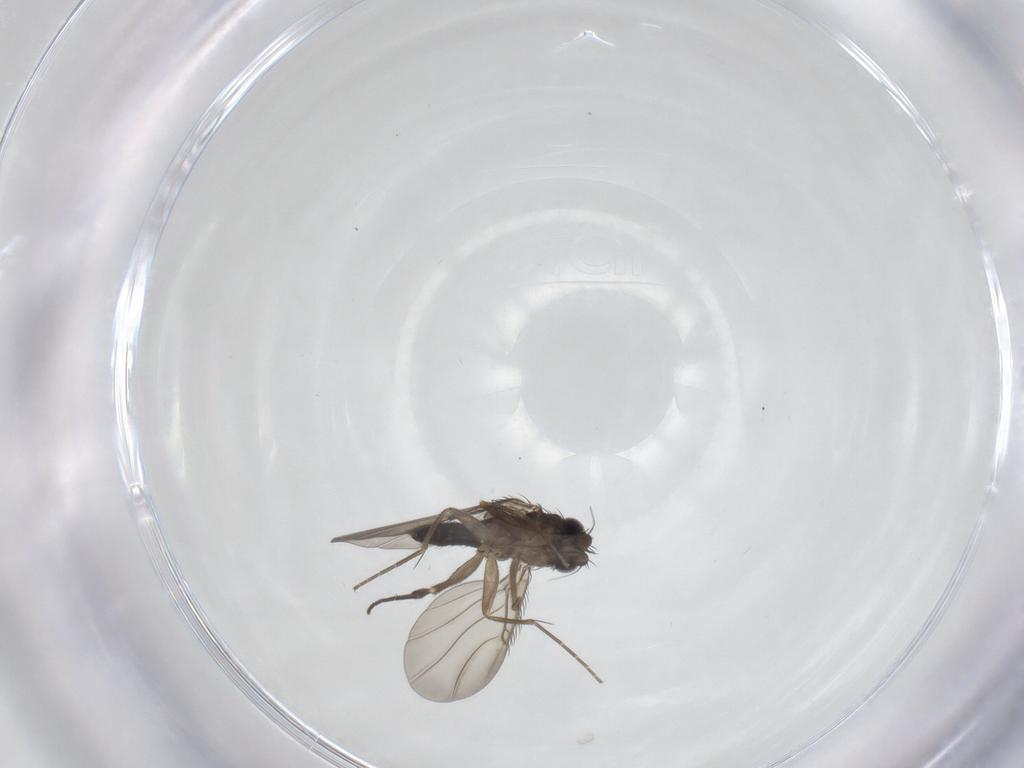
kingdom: Animalia
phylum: Arthropoda
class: Insecta
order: Diptera
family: Phoridae
